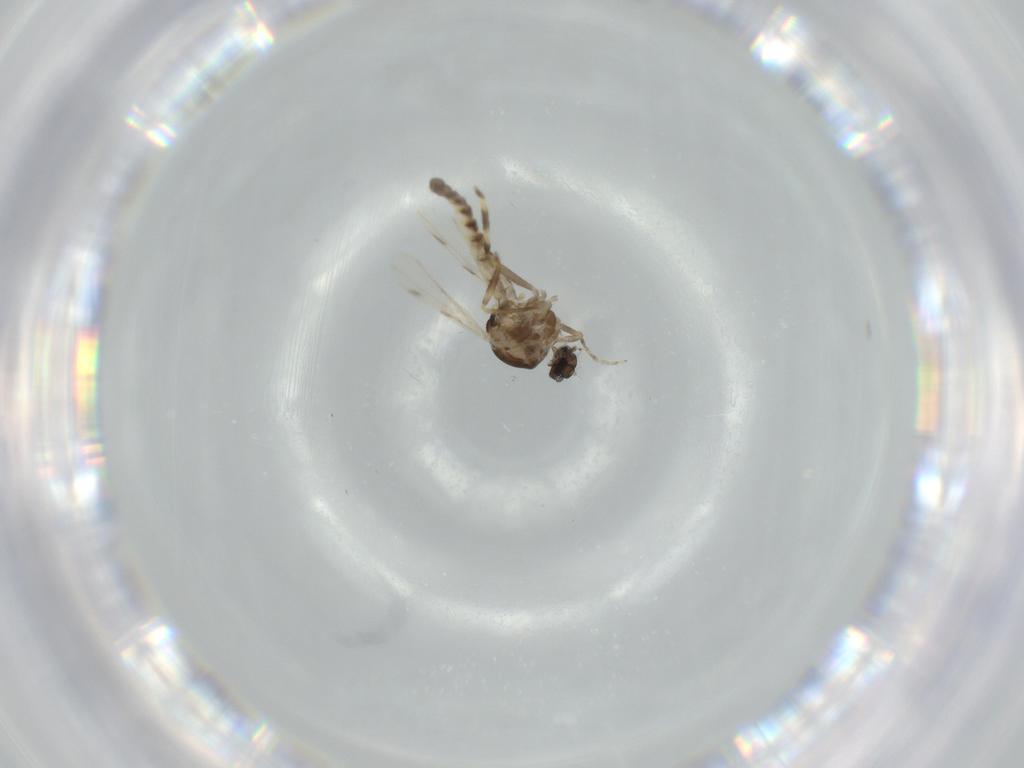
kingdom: Animalia
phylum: Arthropoda
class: Insecta
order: Diptera
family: Ceratopogonidae
